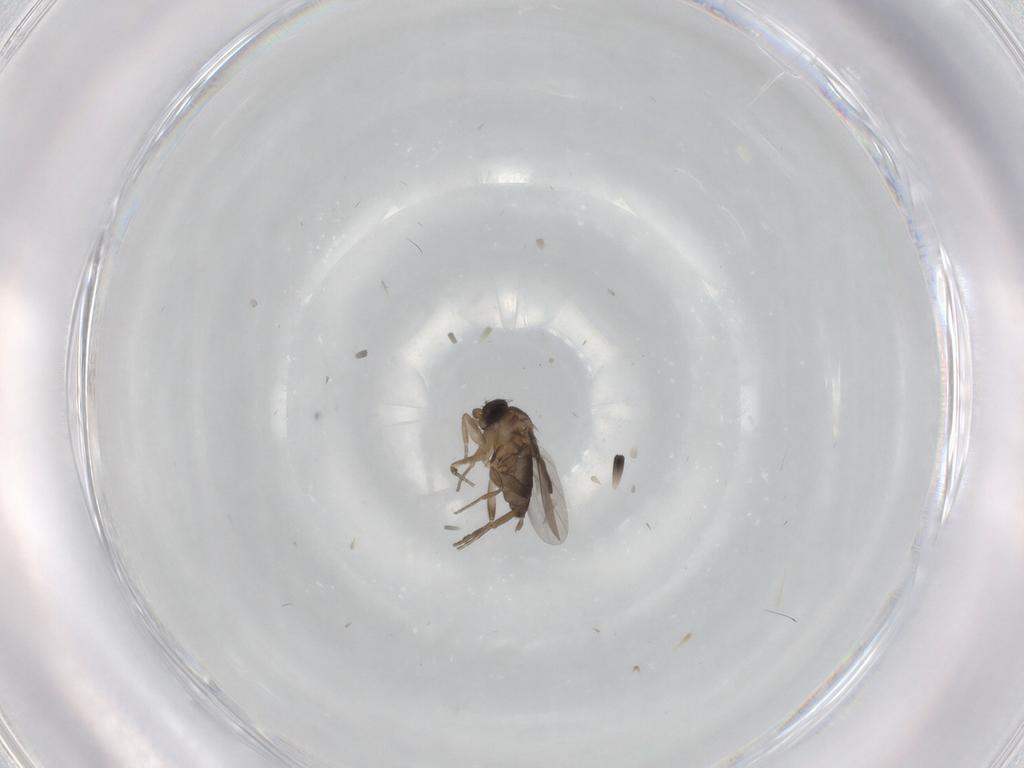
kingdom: Animalia
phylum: Arthropoda
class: Insecta
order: Diptera
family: Phoridae
